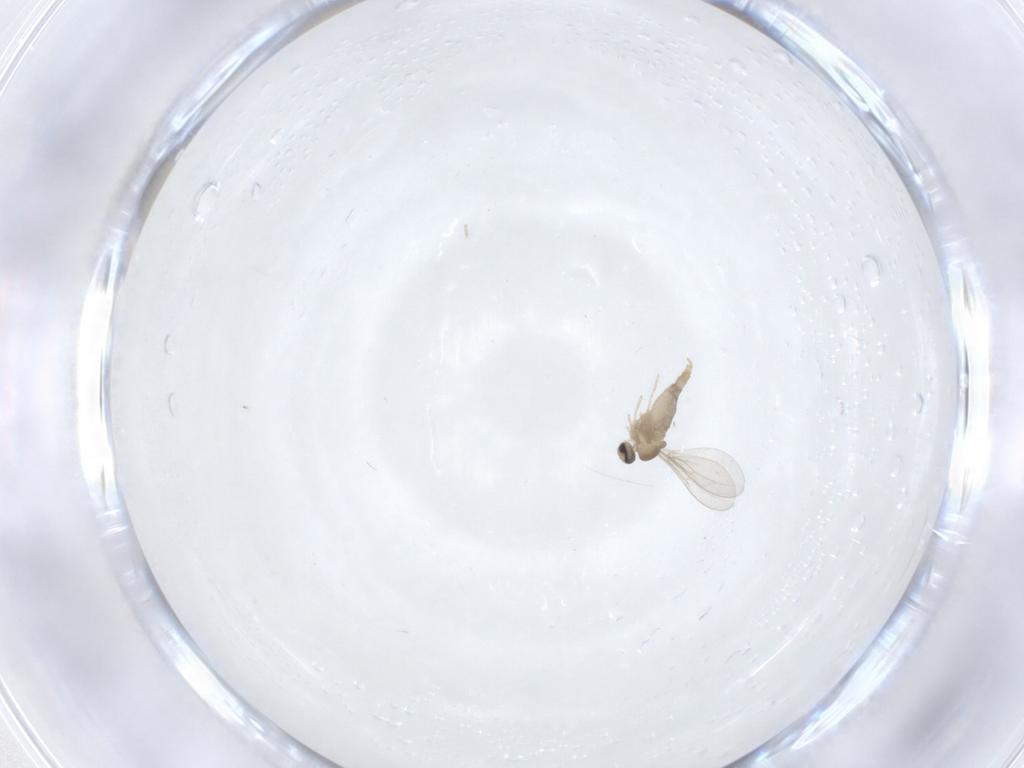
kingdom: Animalia
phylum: Arthropoda
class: Insecta
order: Diptera
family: Cecidomyiidae
